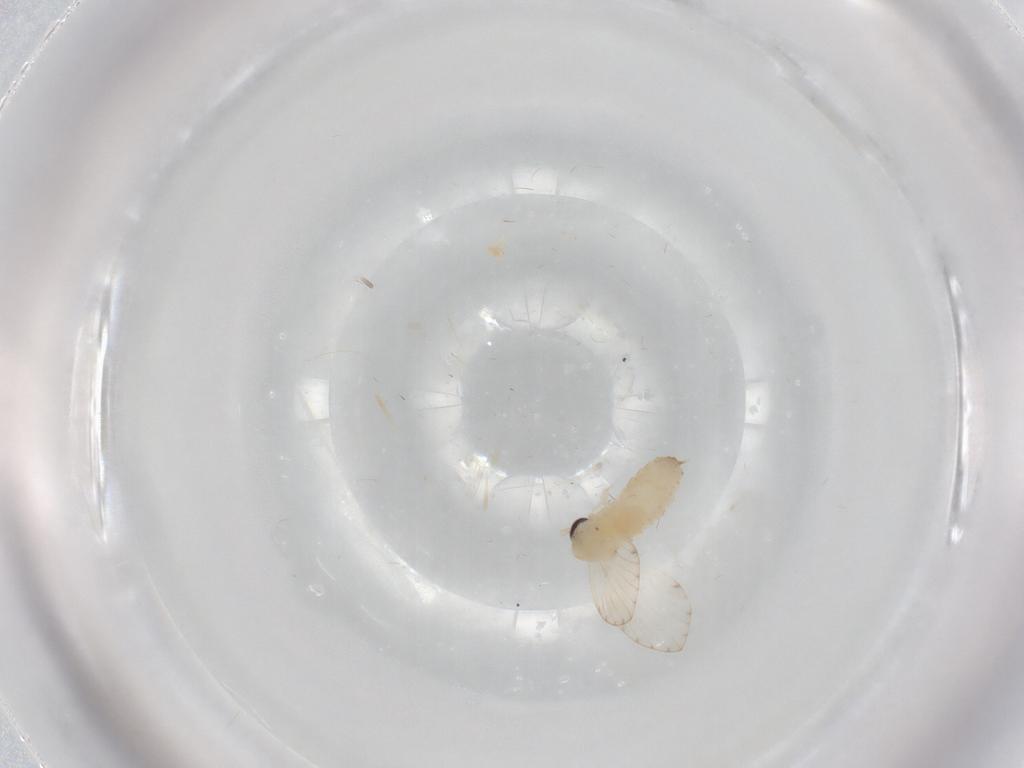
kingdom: Animalia
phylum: Arthropoda
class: Insecta
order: Diptera
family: Psychodidae
